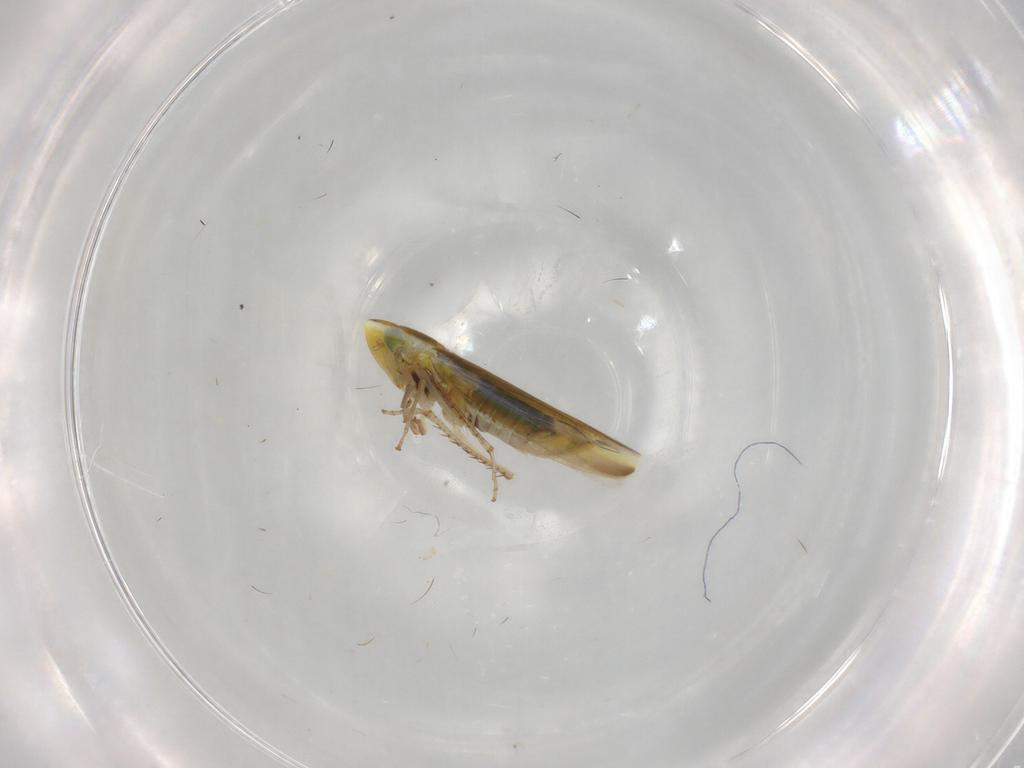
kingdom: Animalia
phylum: Arthropoda
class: Insecta
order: Hemiptera
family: Cicadellidae
